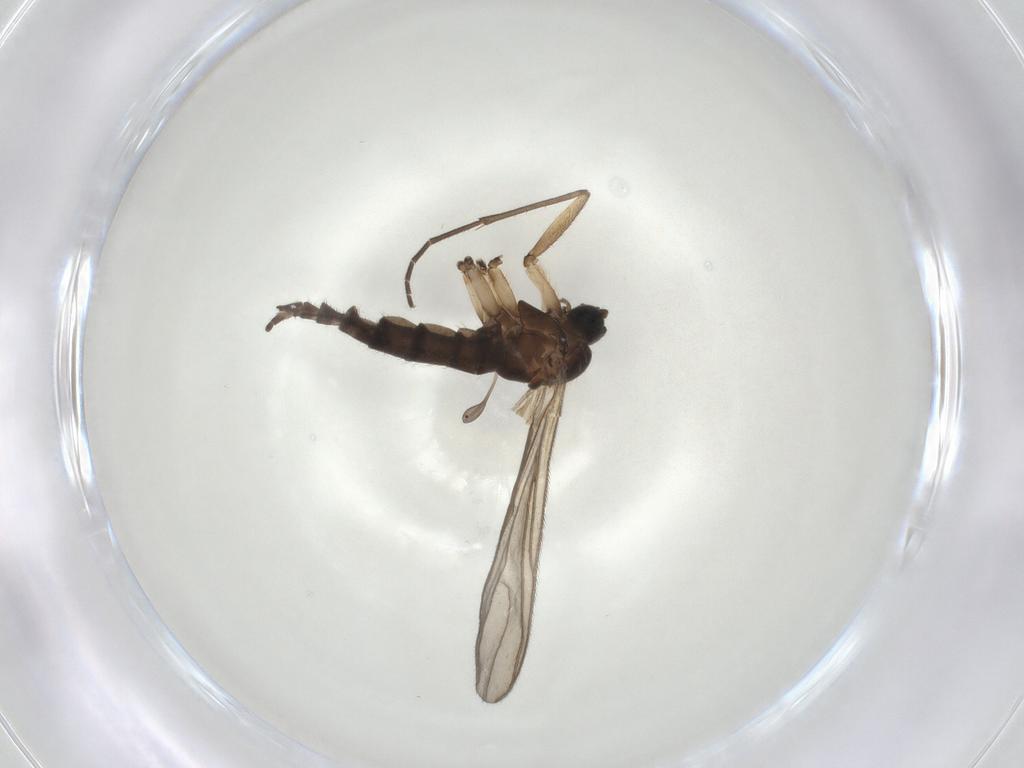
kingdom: Animalia
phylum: Arthropoda
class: Insecta
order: Diptera
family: Sciaridae
